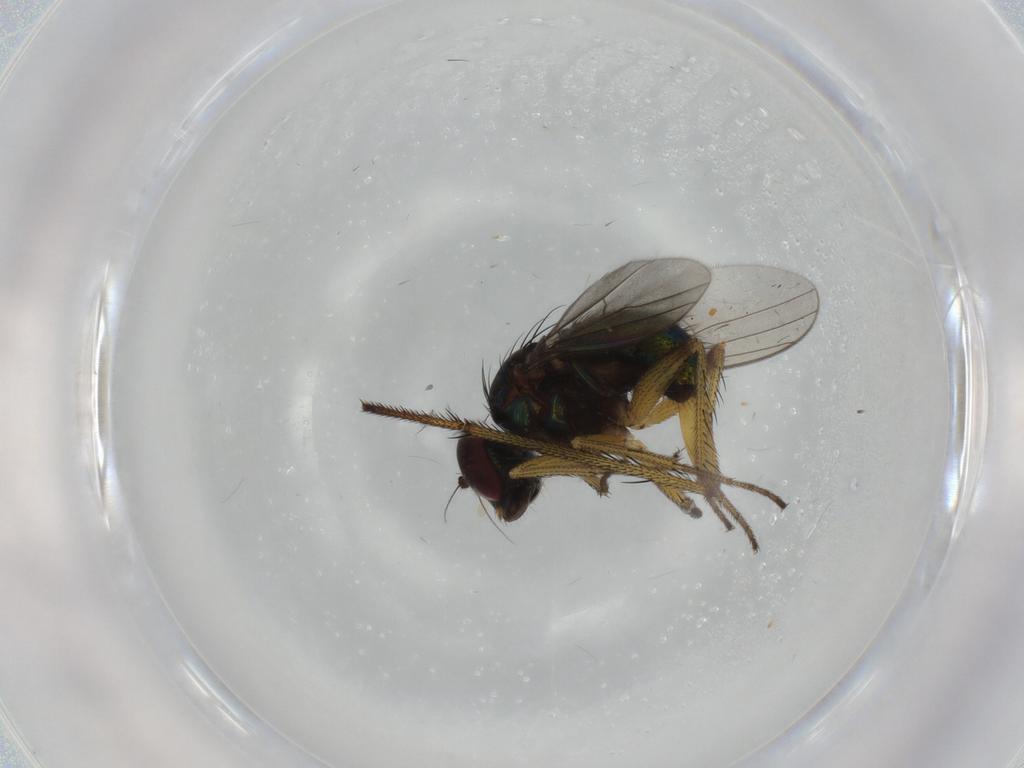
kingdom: Animalia
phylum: Arthropoda
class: Insecta
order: Diptera
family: Dolichopodidae
